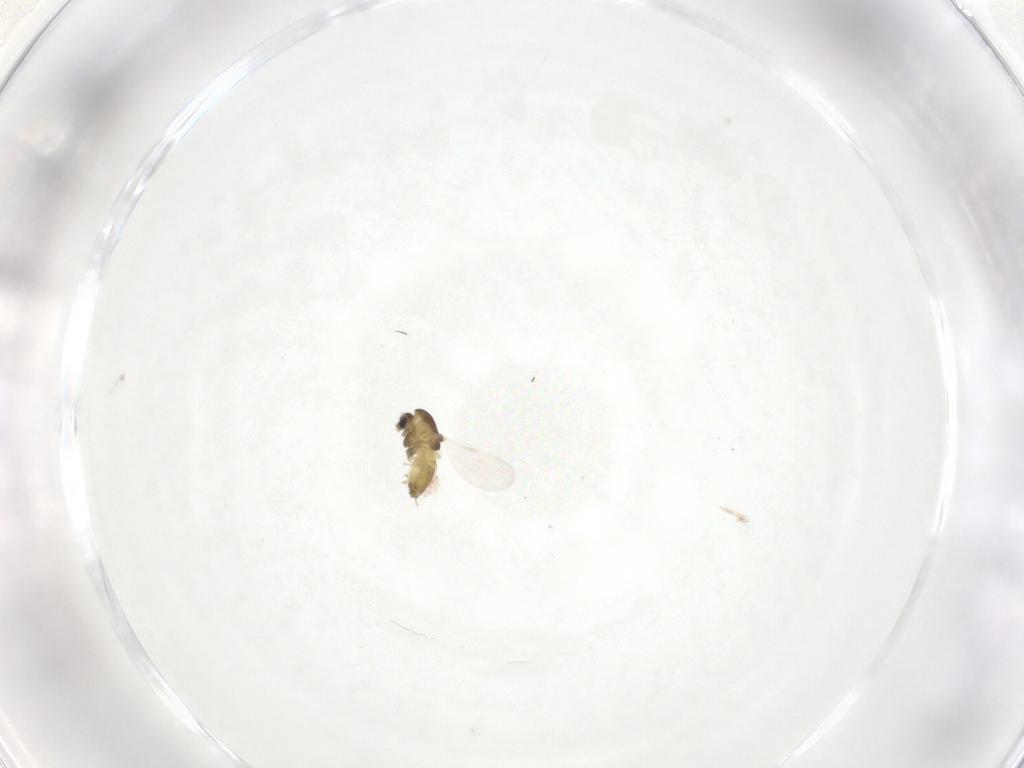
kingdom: Animalia
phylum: Arthropoda
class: Insecta
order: Diptera
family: Chironomidae
